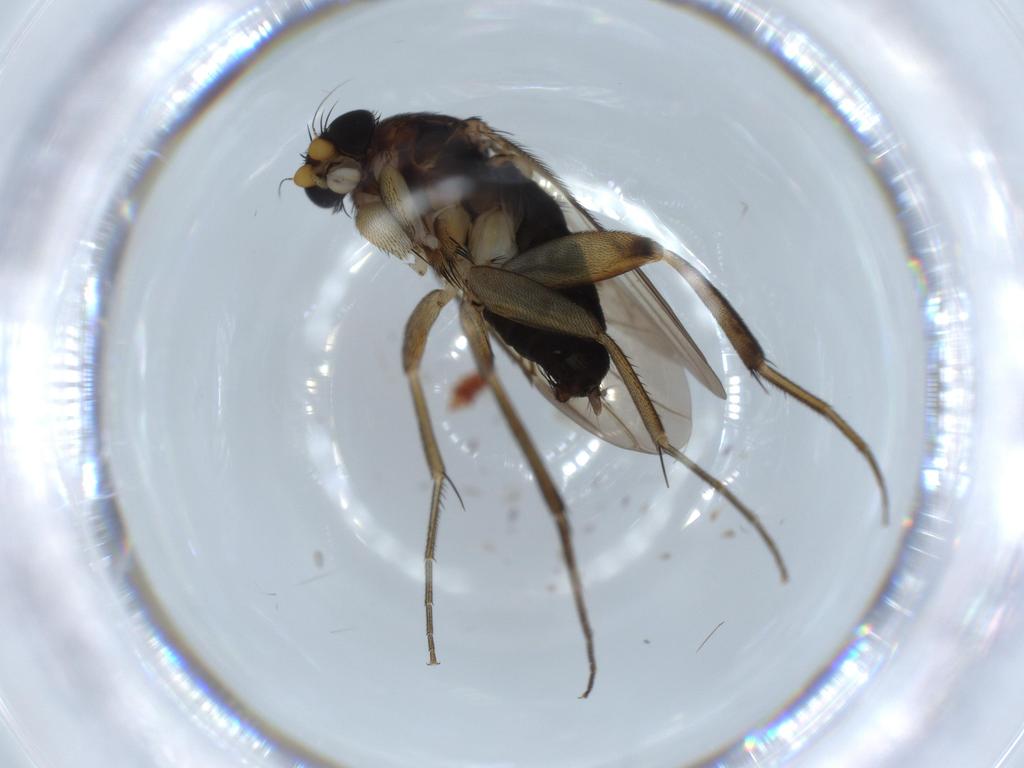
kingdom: Animalia
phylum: Arthropoda
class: Insecta
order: Diptera
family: Phoridae
